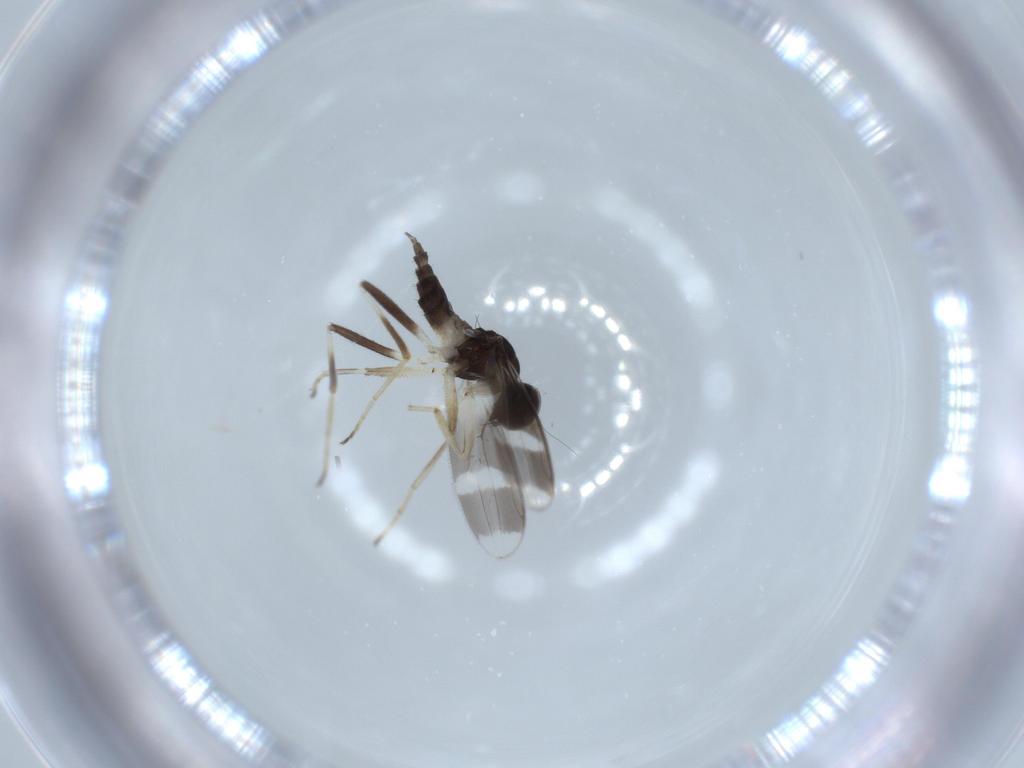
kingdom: Animalia
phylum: Arthropoda
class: Insecta
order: Diptera
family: Hybotidae
